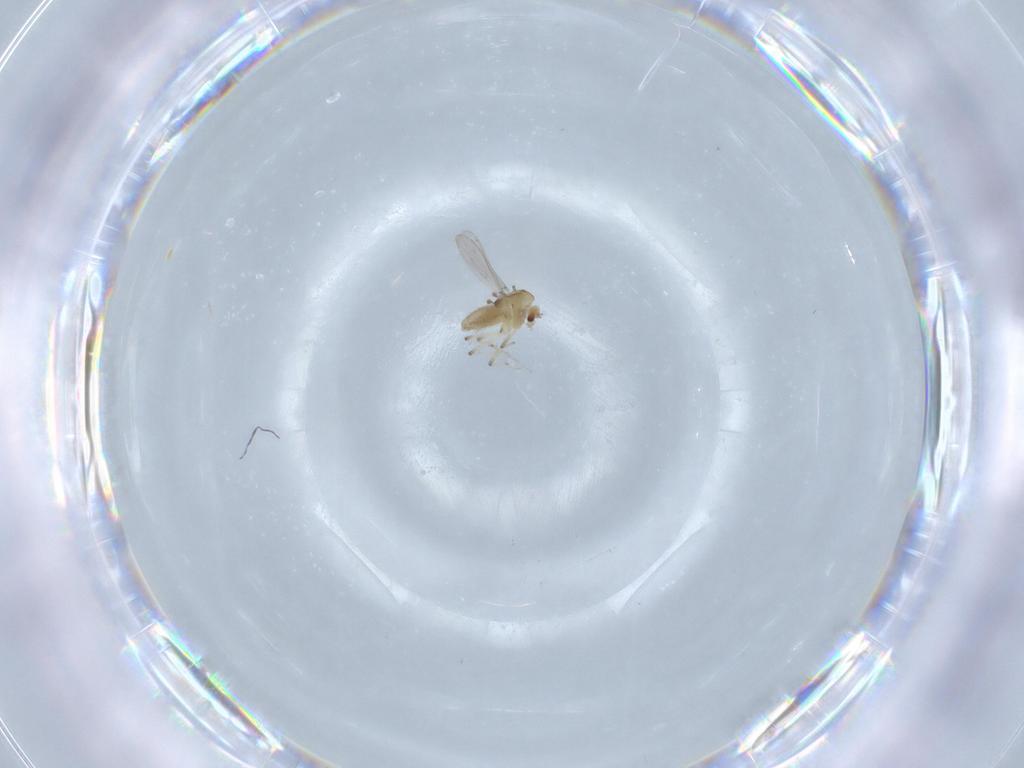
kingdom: Animalia
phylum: Arthropoda
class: Insecta
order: Diptera
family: Chironomidae
